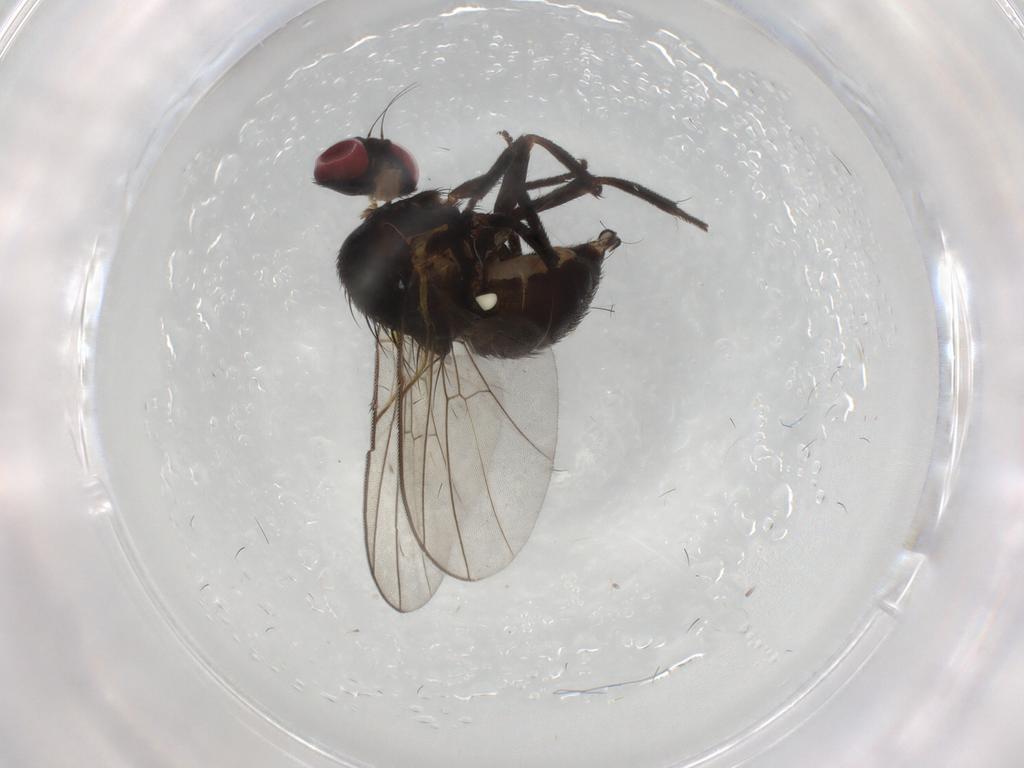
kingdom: Animalia
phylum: Arthropoda
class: Insecta
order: Diptera
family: Agromyzidae
